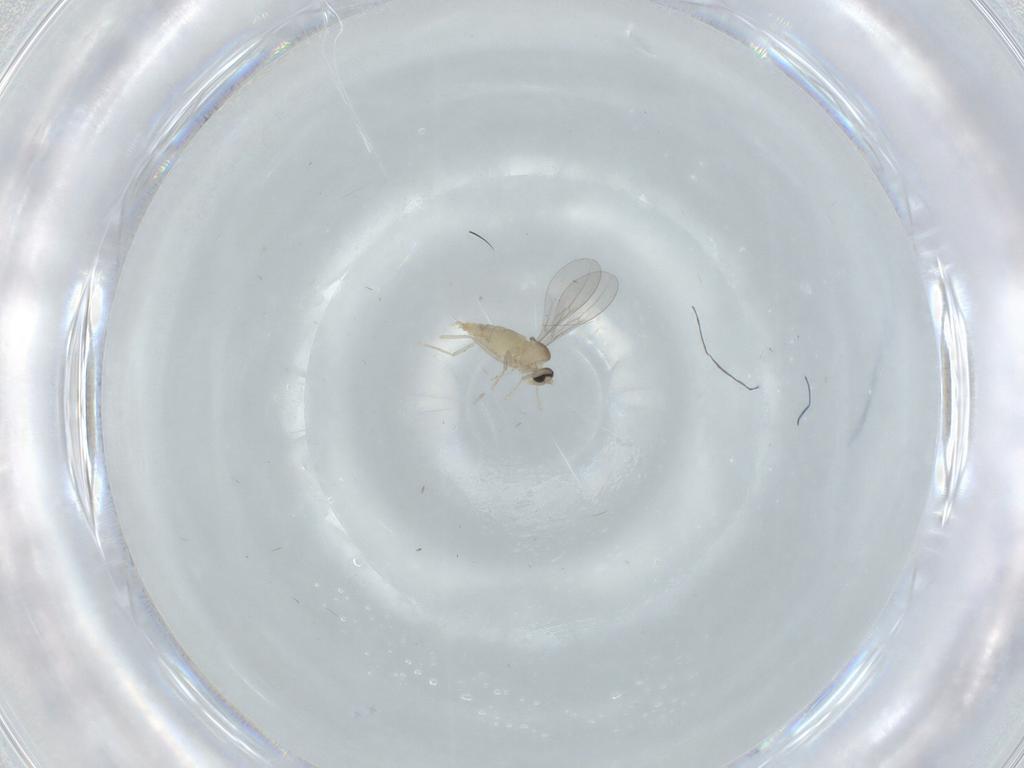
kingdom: Animalia
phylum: Arthropoda
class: Insecta
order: Diptera
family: Cecidomyiidae
